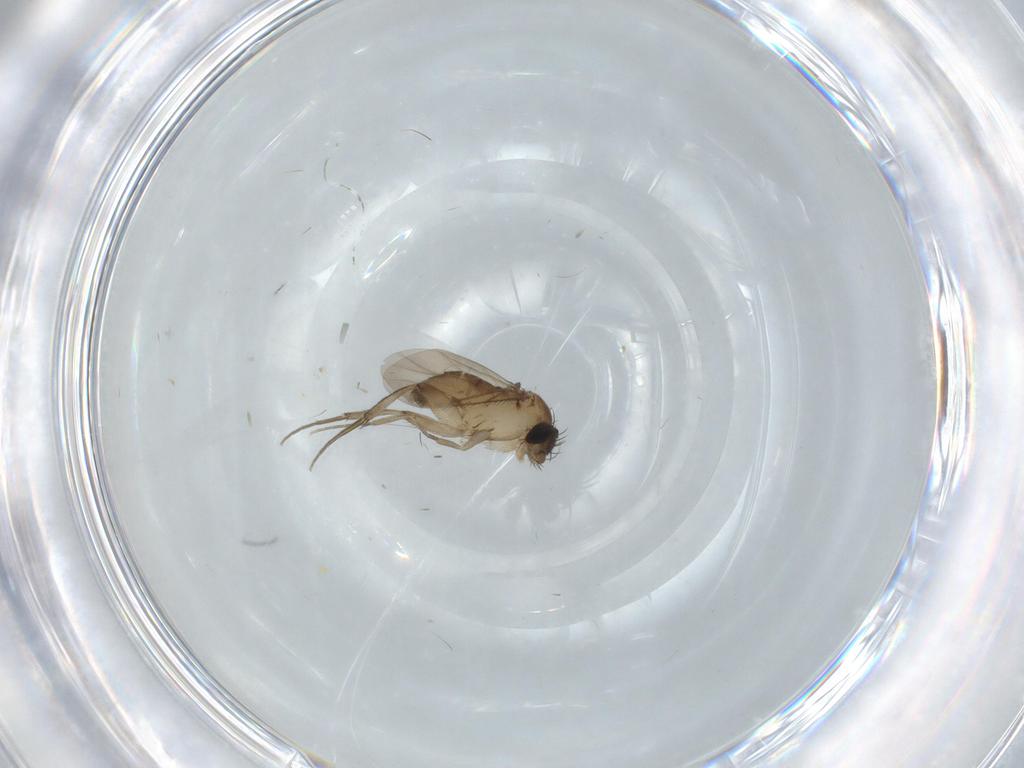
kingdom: Animalia
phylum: Arthropoda
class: Insecta
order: Diptera
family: Phoridae
